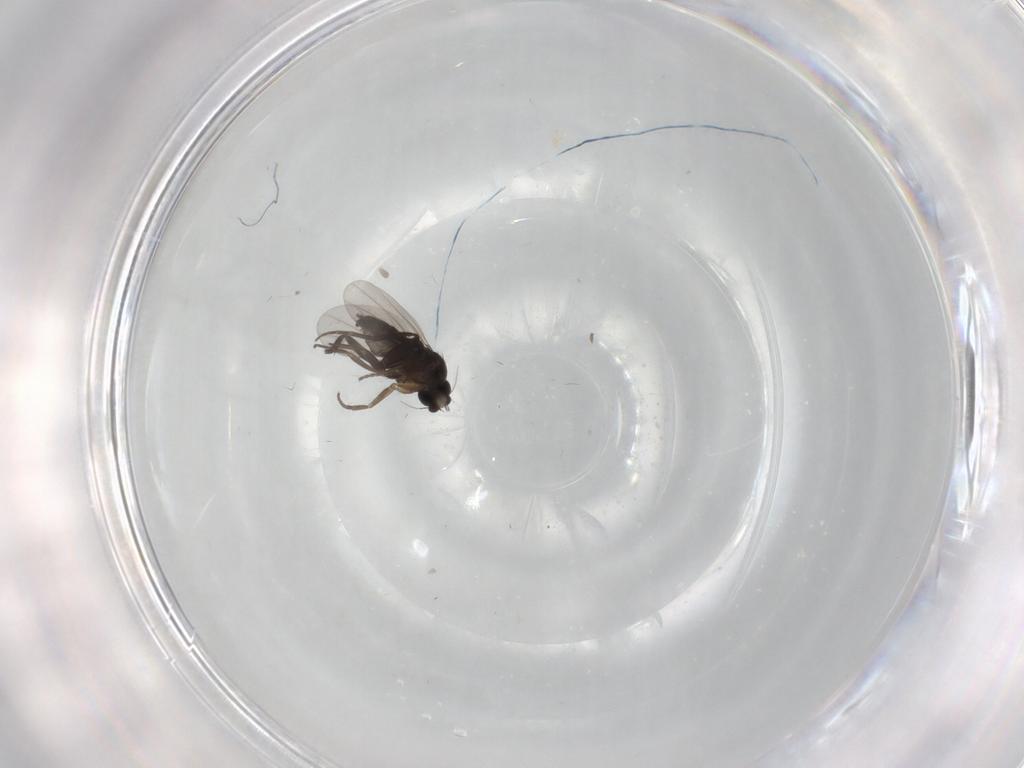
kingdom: Animalia
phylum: Arthropoda
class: Insecta
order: Diptera
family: Phoridae
